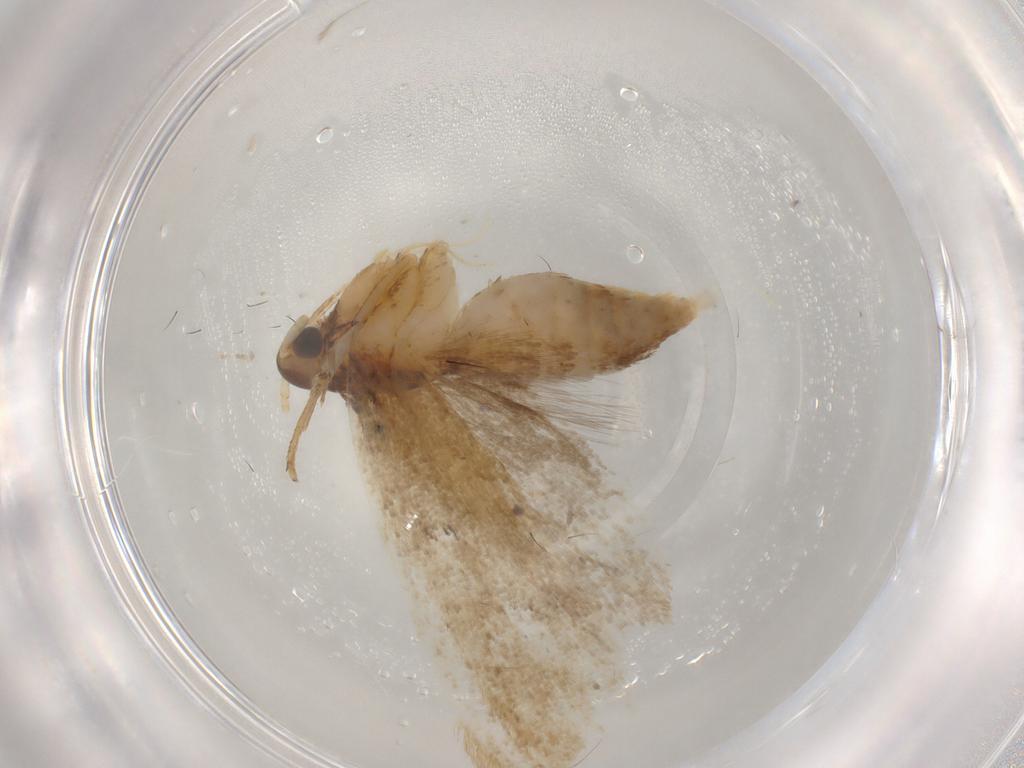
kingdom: Animalia
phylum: Arthropoda
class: Insecta
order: Lepidoptera
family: Lecithoceridae
